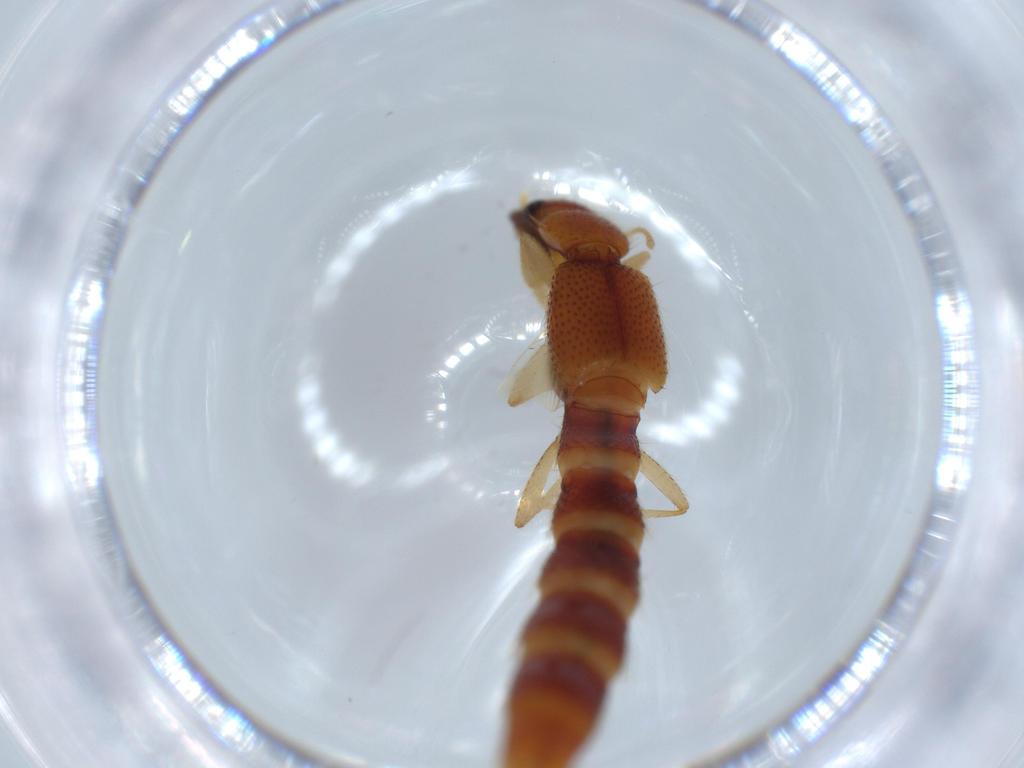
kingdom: Animalia
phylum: Arthropoda
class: Insecta
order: Coleoptera
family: Staphylinidae
